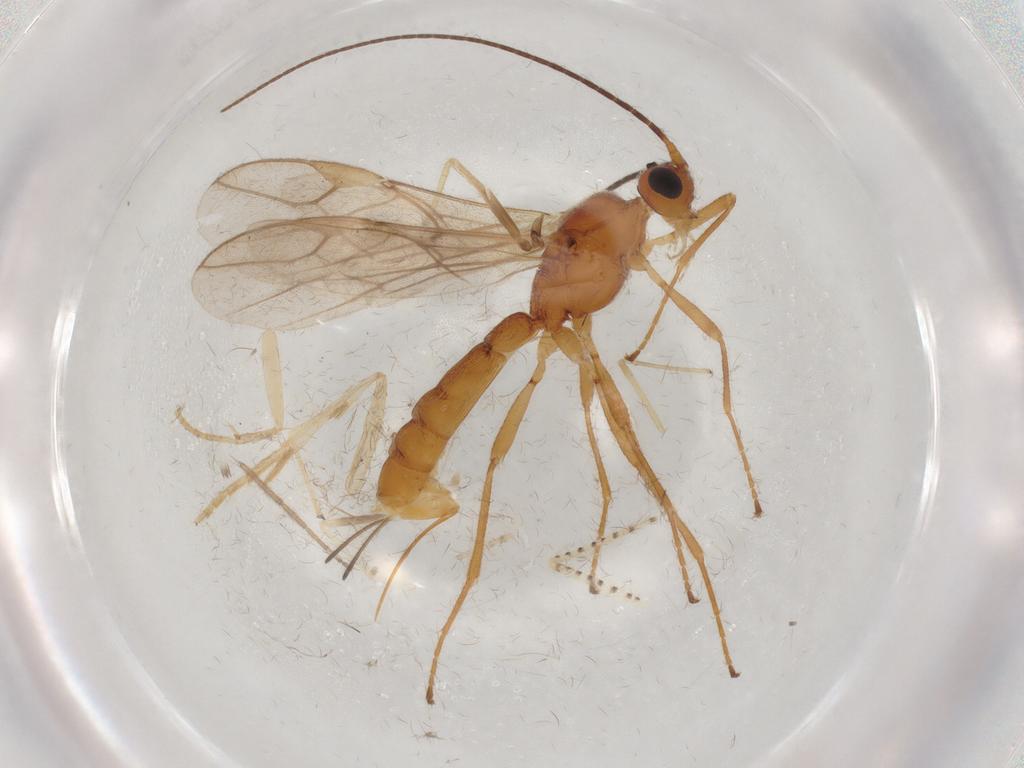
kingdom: Animalia
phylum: Arthropoda
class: Insecta
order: Hymenoptera
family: Braconidae
